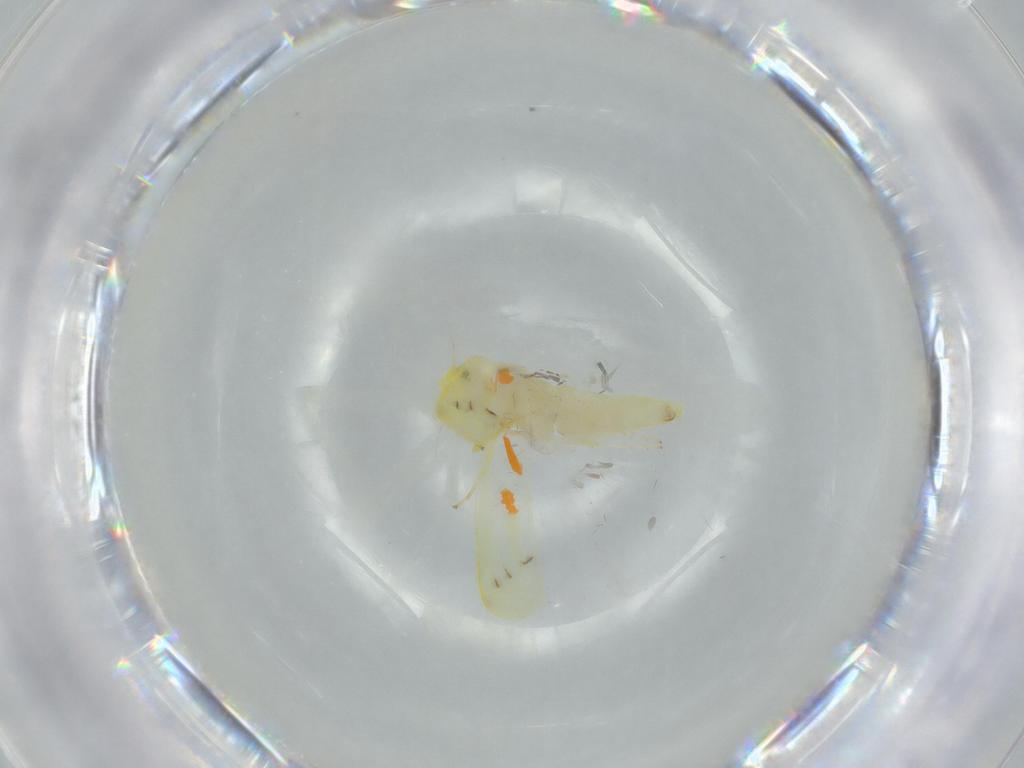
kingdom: Animalia
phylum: Arthropoda
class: Insecta
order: Hemiptera
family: Cicadellidae
